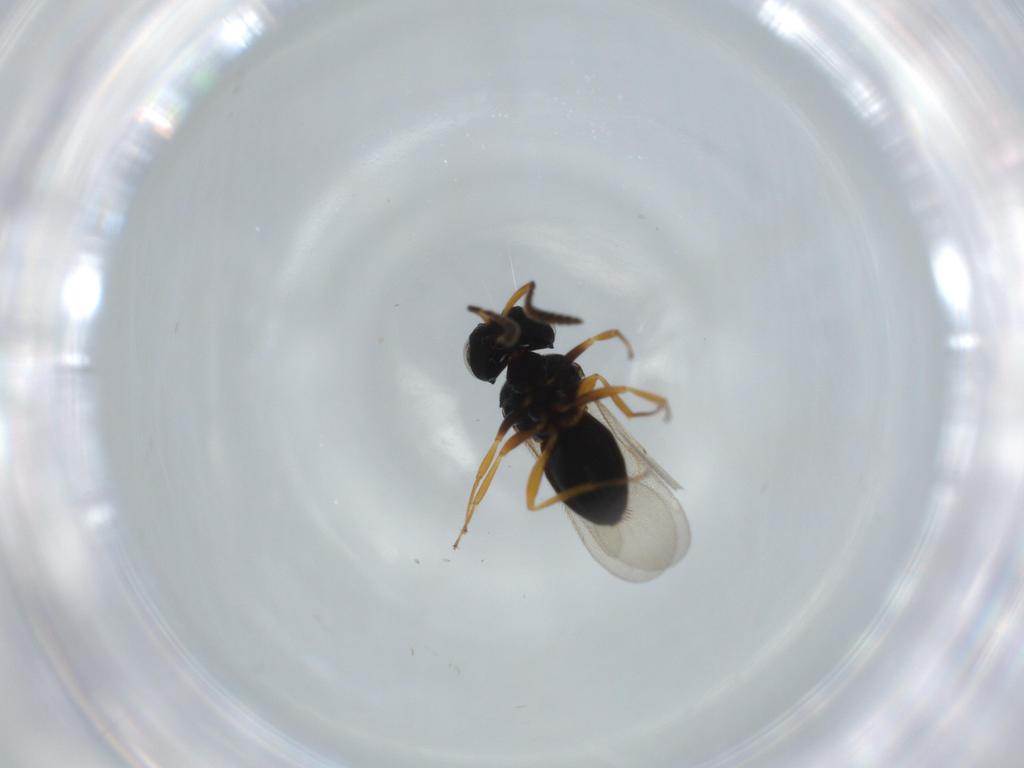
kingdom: Animalia
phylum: Arthropoda
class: Insecta
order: Hymenoptera
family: Scelionidae
